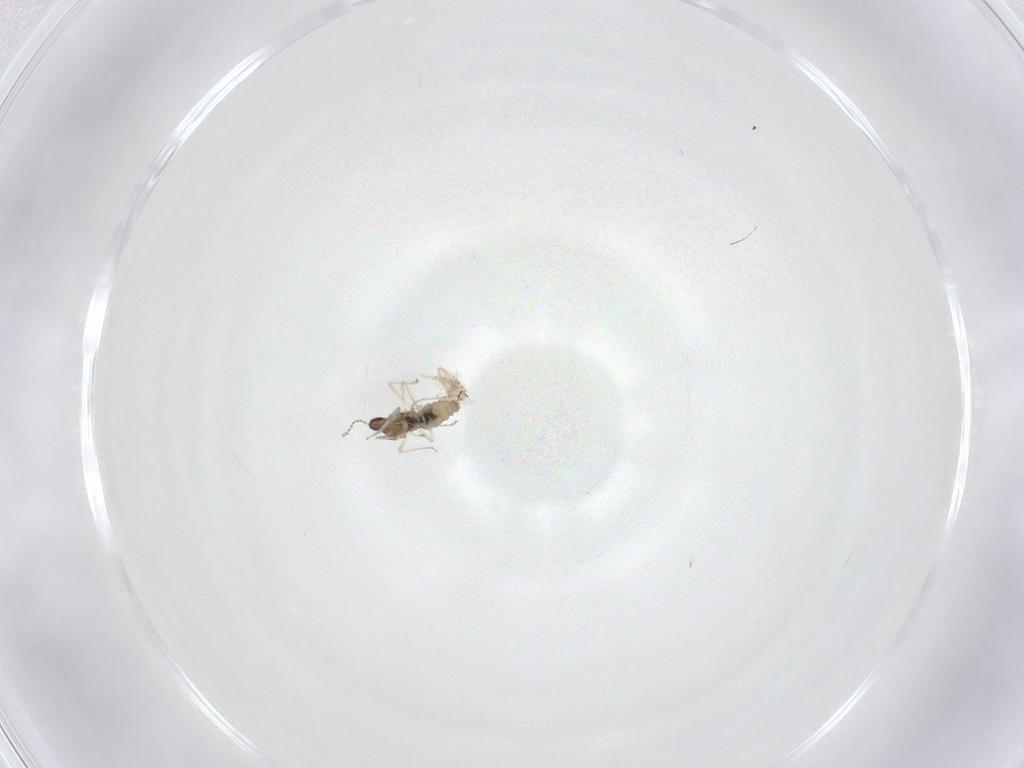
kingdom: Animalia
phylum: Arthropoda
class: Insecta
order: Diptera
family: Cecidomyiidae
